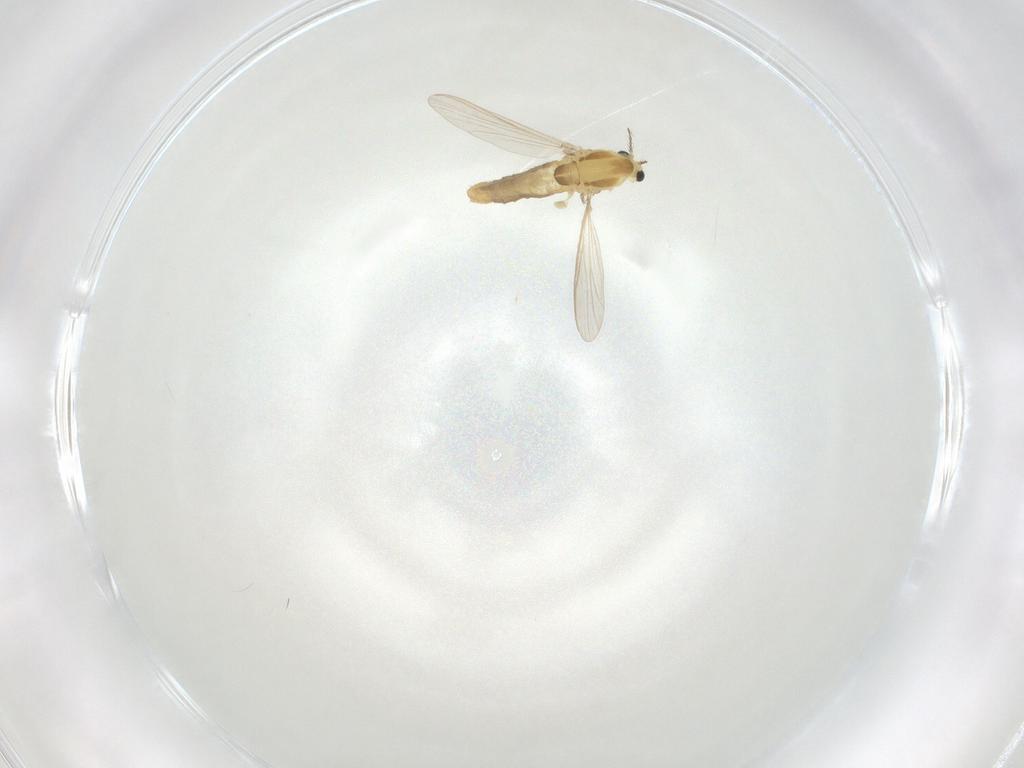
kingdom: Animalia
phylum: Arthropoda
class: Insecta
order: Diptera
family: Chironomidae
